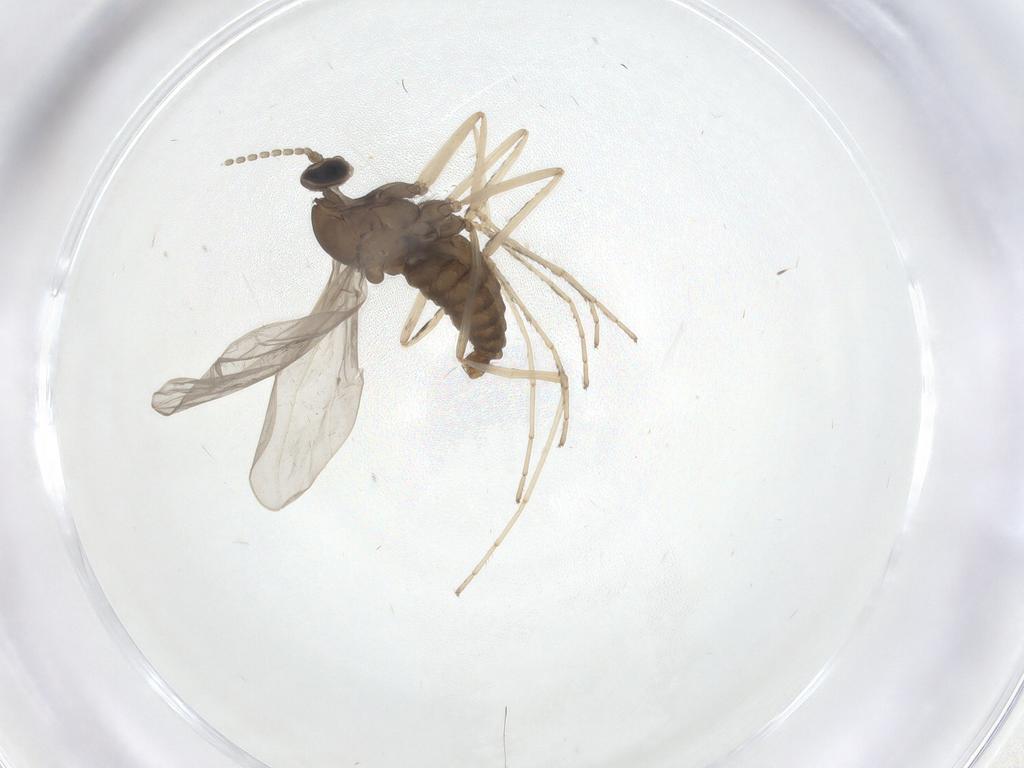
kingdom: Animalia
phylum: Arthropoda
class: Insecta
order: Diptera
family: Cecidomyiidae
